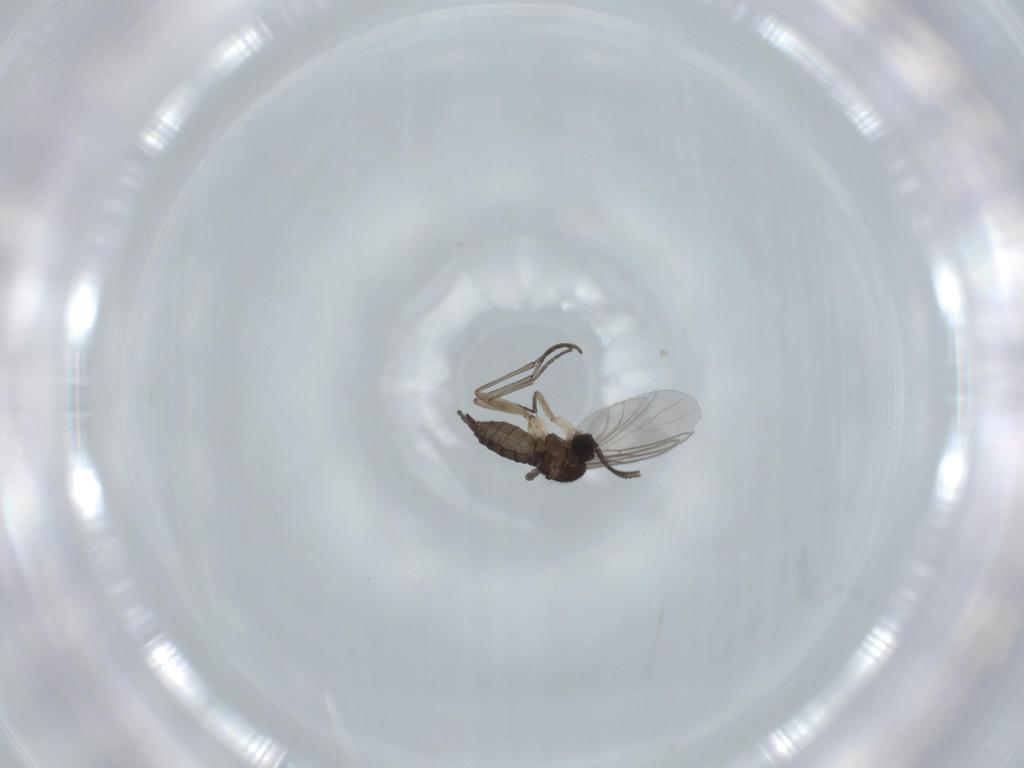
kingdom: Animalia
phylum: Arthropoda
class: Insecta
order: Diptera
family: Sciaridae
